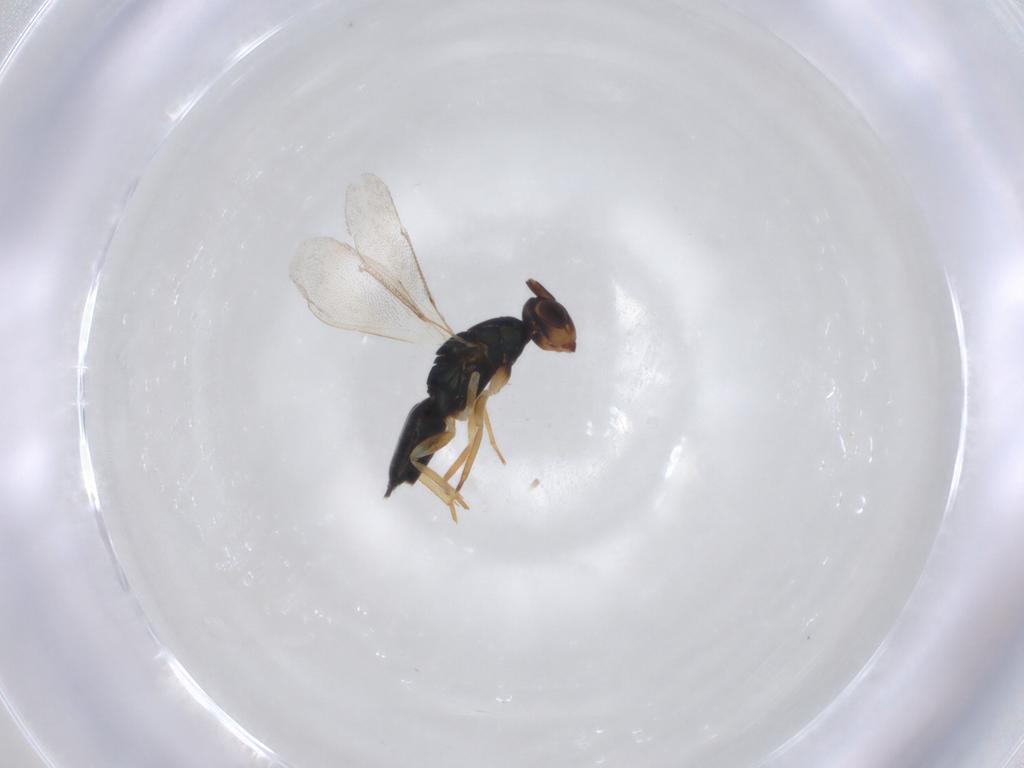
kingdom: Animalia
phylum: Arthropoda
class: Insecta
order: Hymenoptera
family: Eulophidae
